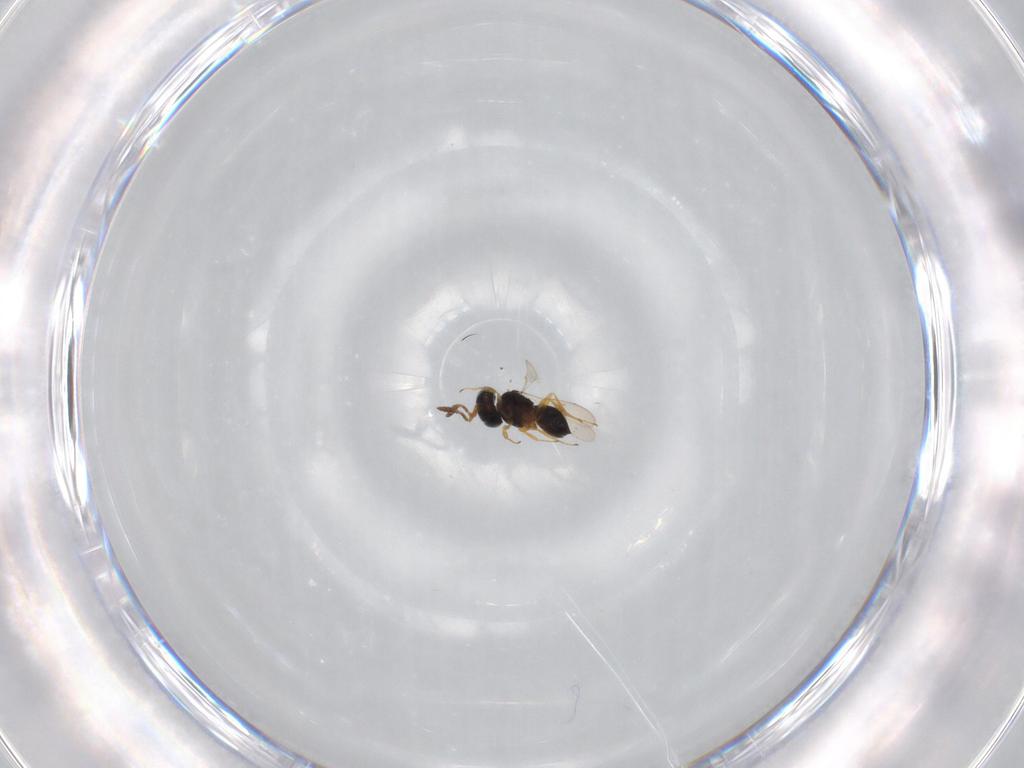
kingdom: Animalia
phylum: Arthropoda
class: Insecta
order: Hymenoptera
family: Scelionidae
